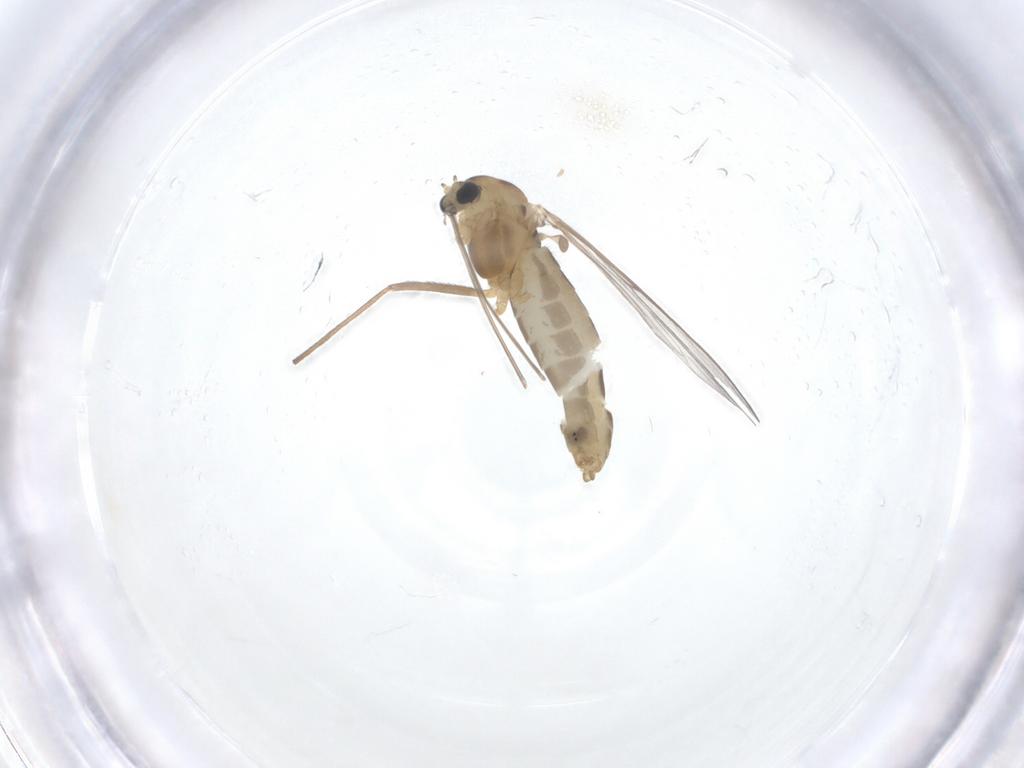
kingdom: Animalia
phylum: Arthropoda
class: Insecta
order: Diptera
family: Chironomidae
